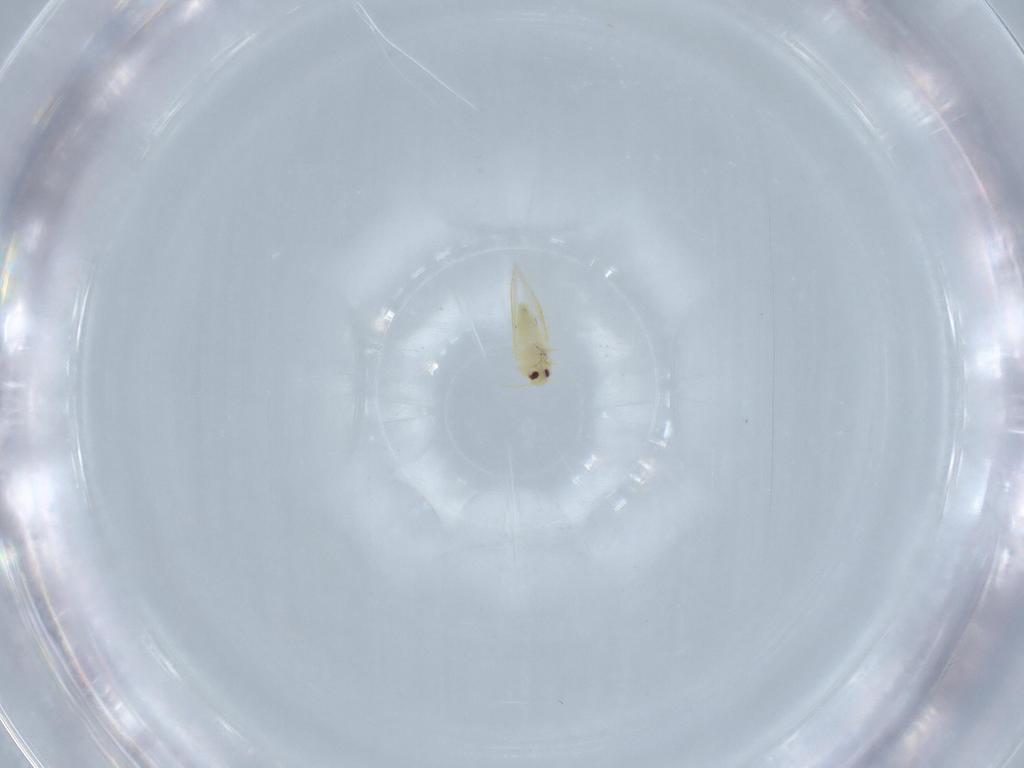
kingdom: Animalia
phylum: Arthropoda
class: Insecta
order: Hemiptera
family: Aleyrodidae
